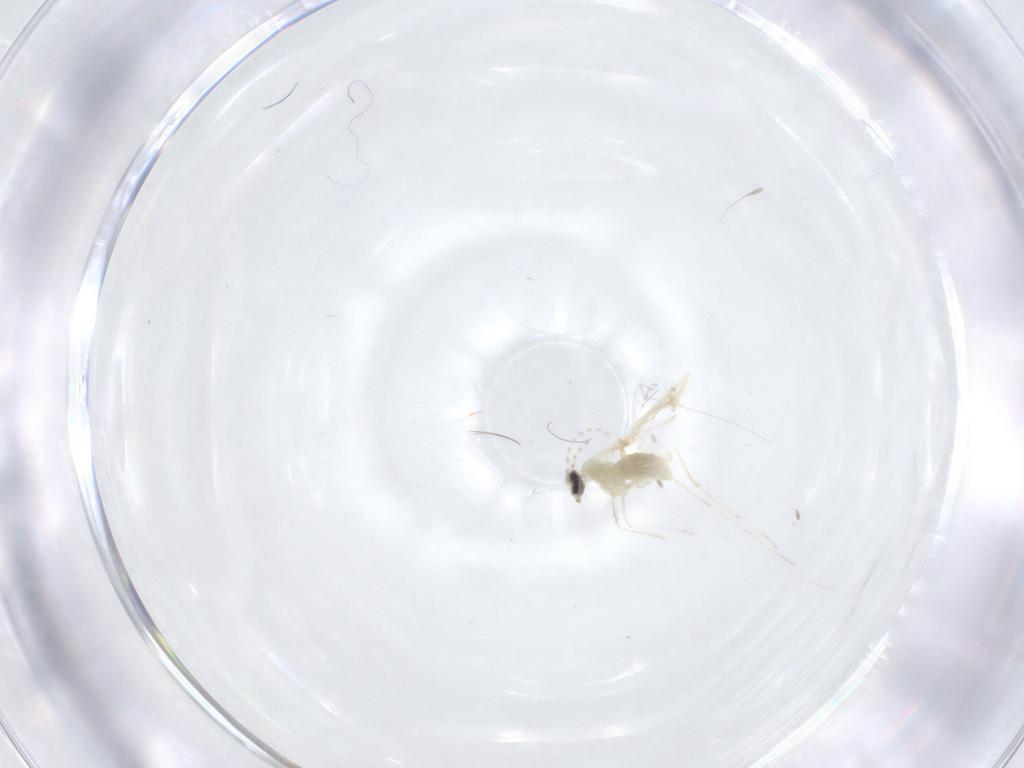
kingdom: Animalia
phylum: Arthropoda
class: Insecta
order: Diptera
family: Cecidomyiidae
